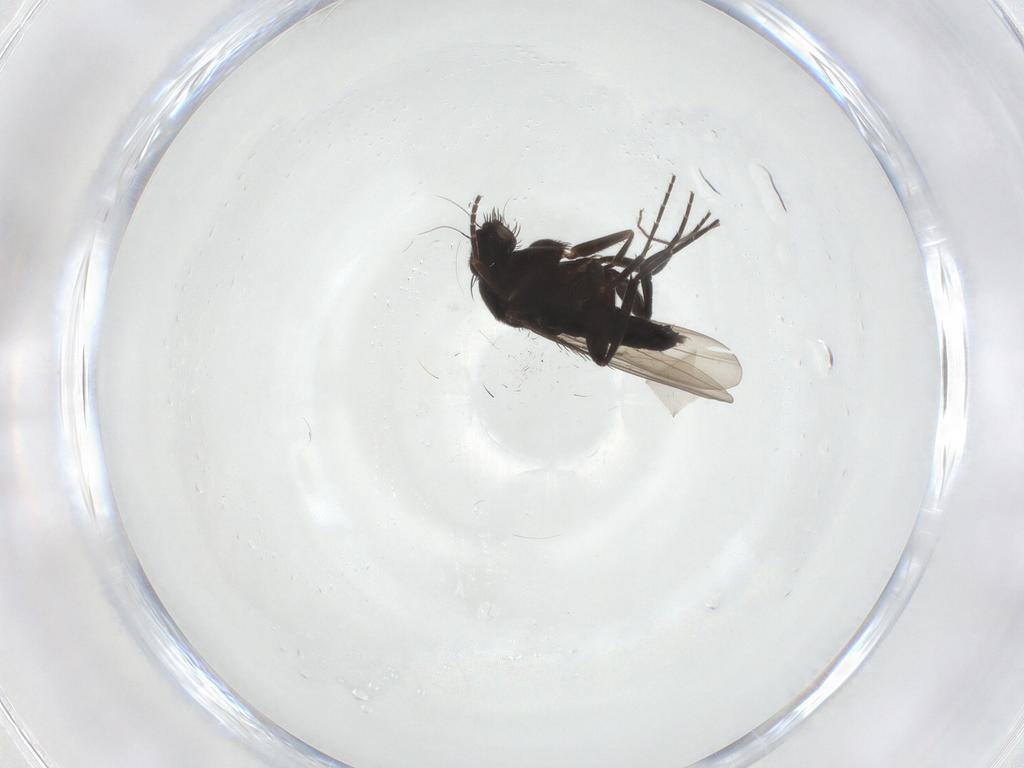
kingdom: Animalia
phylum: Arthropoda
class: Insecta
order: Diptera
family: Phoridae
